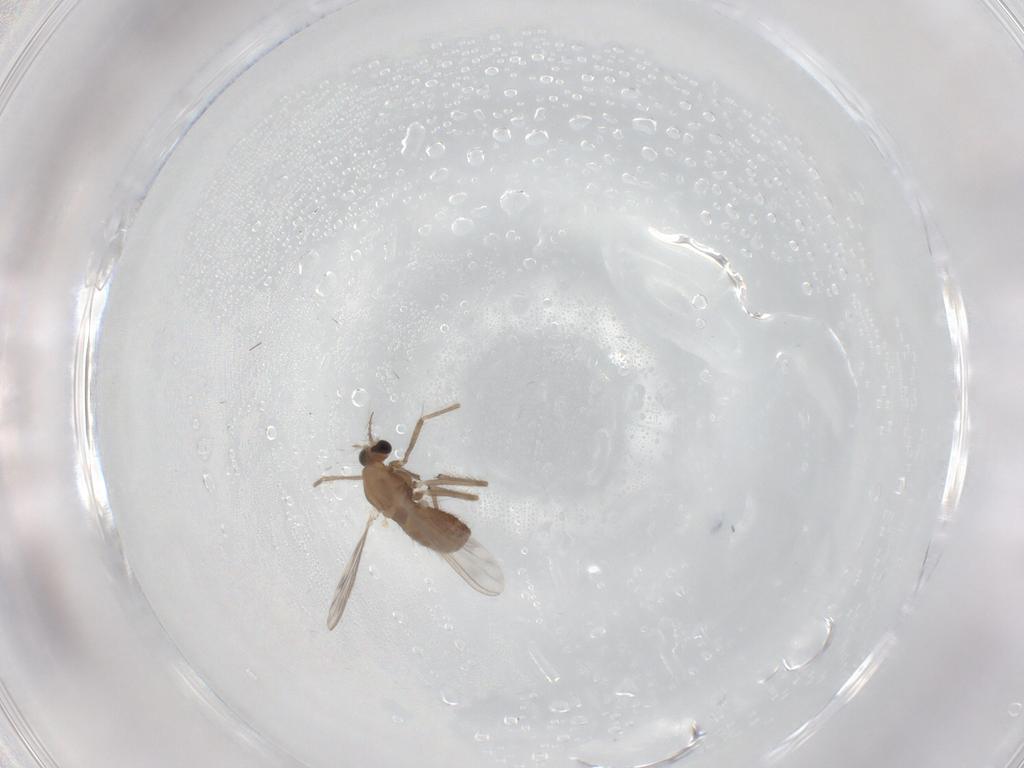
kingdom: Animalia
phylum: Arthropoda
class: Insecta
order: Diptera
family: Chironomidae
